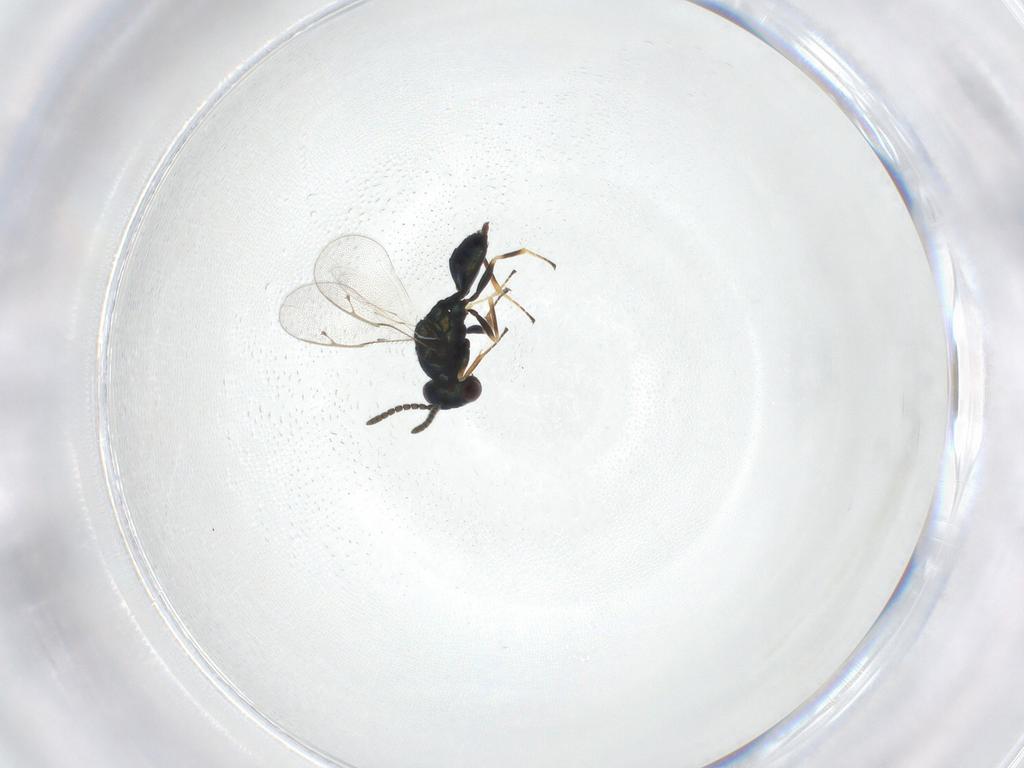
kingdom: Animalia
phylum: Arthropoda
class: Insecta
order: Hymenoptera
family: Pteromalidae
